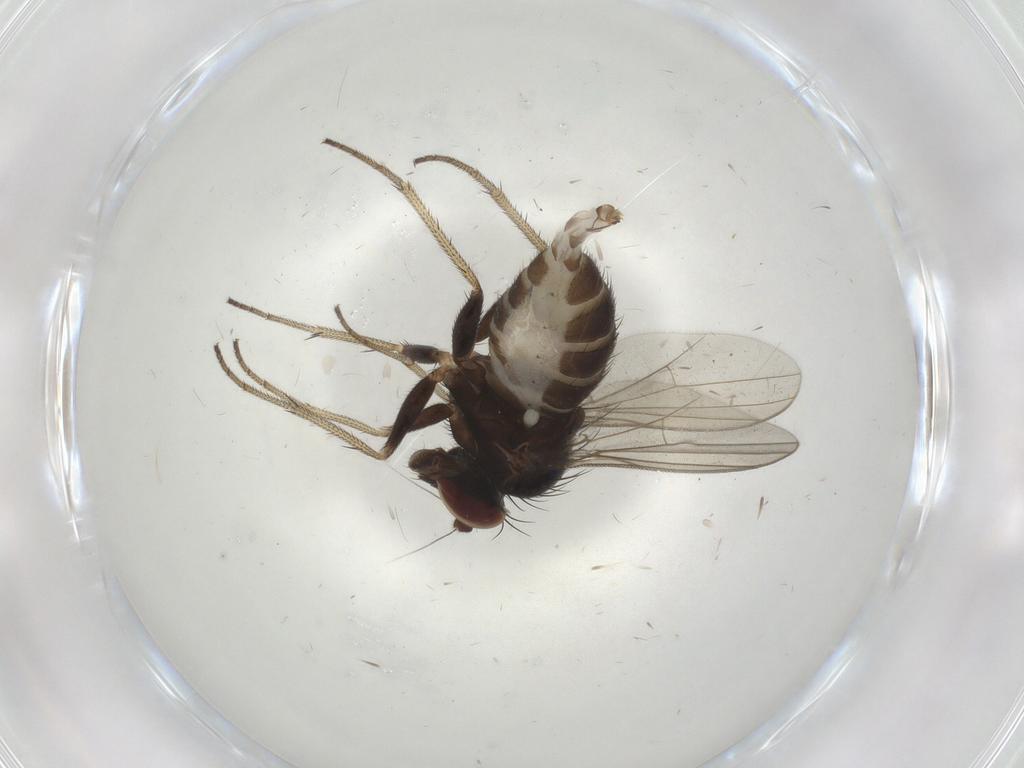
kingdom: Animalia
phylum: Arthropoda
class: Insecta
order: Diptera
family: Dolichopodidae
